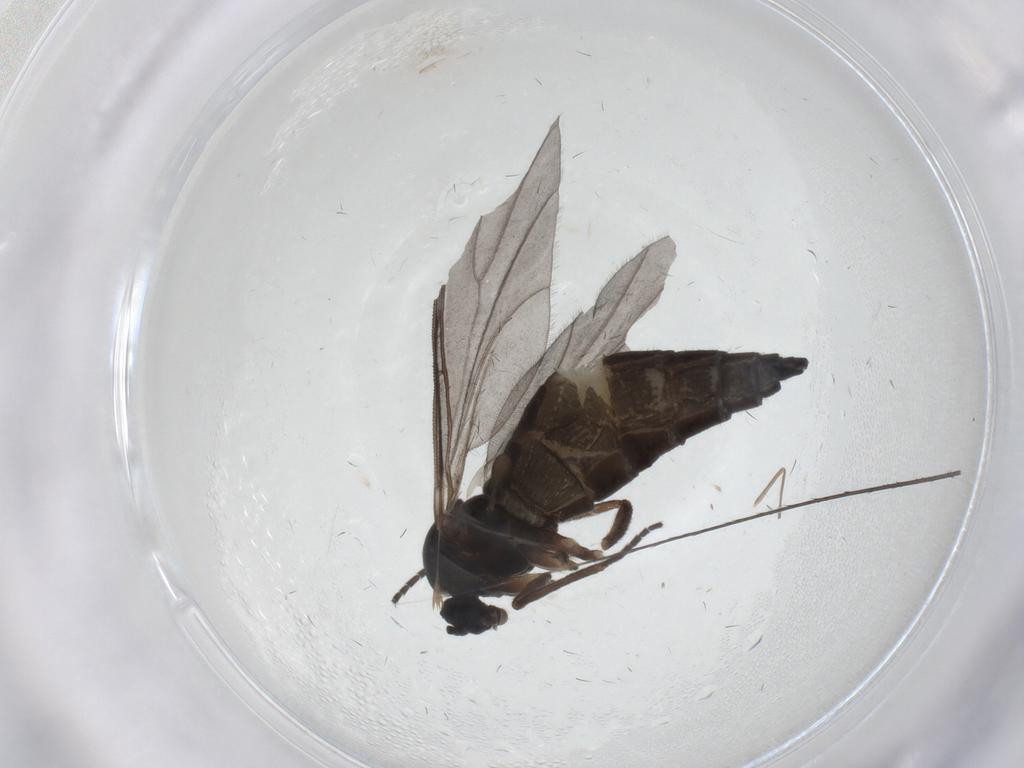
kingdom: Animalia
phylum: Arthropoda
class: Insecta
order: Diptera
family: Sciaridae
